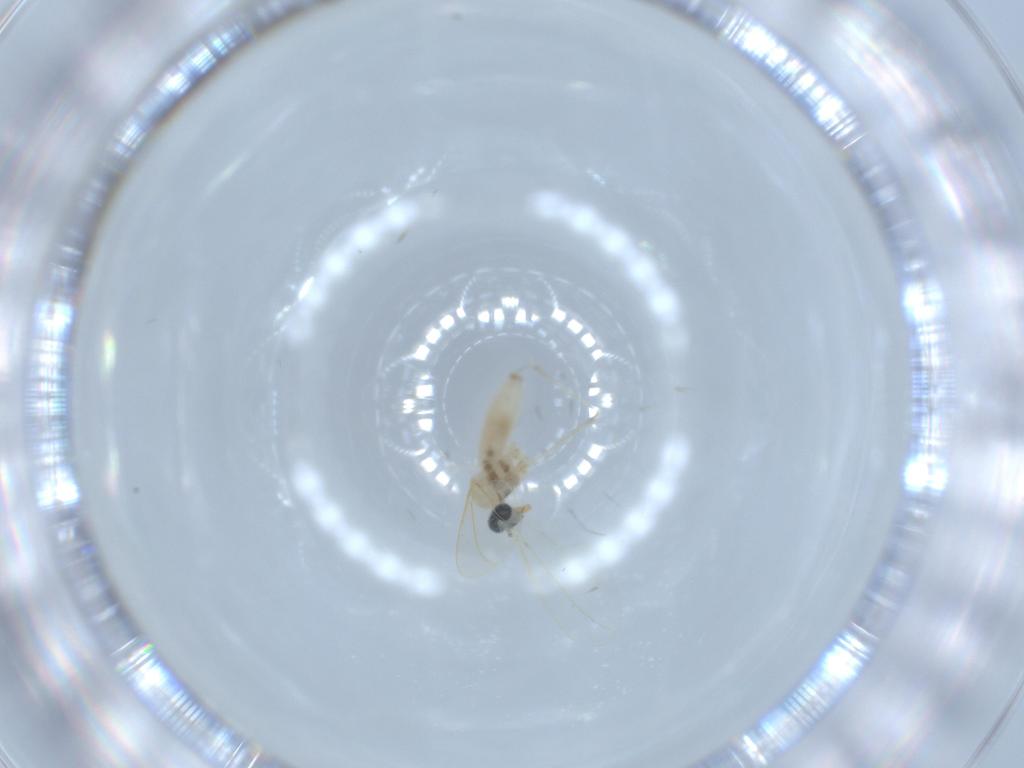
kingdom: Animalia
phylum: Arthropoda
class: Insecta
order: Diptera
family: Cecidomyiidae
